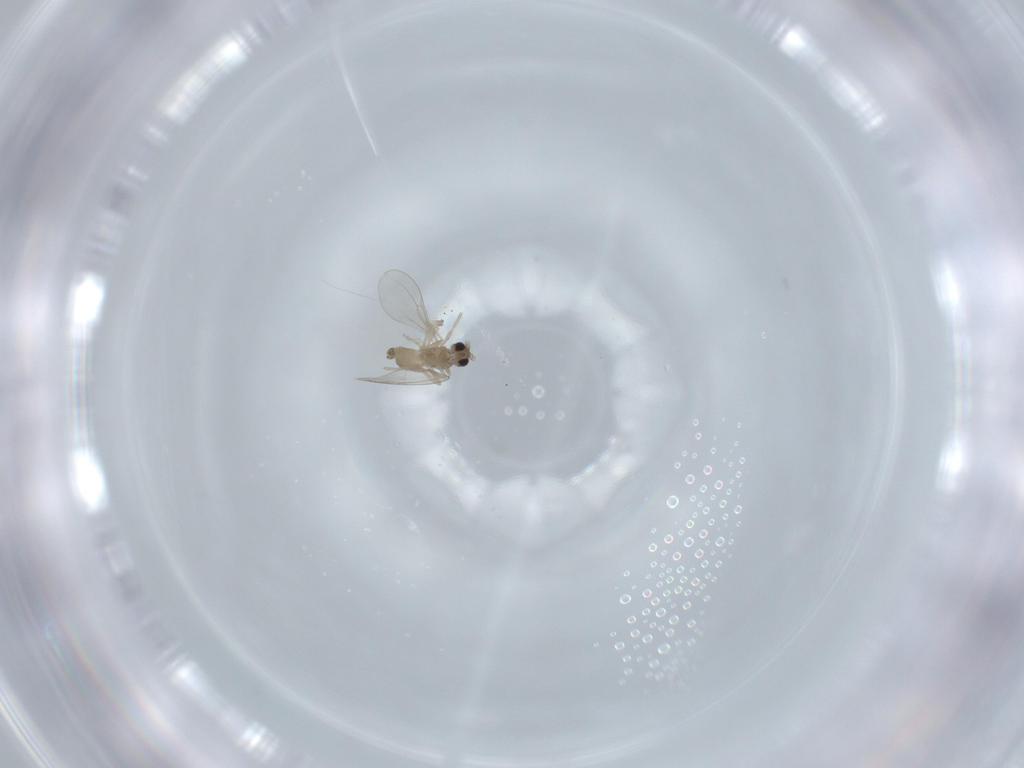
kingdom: Animalia
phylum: Arthropoda
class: Insecta
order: Diptera
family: Cecidomyiidae
